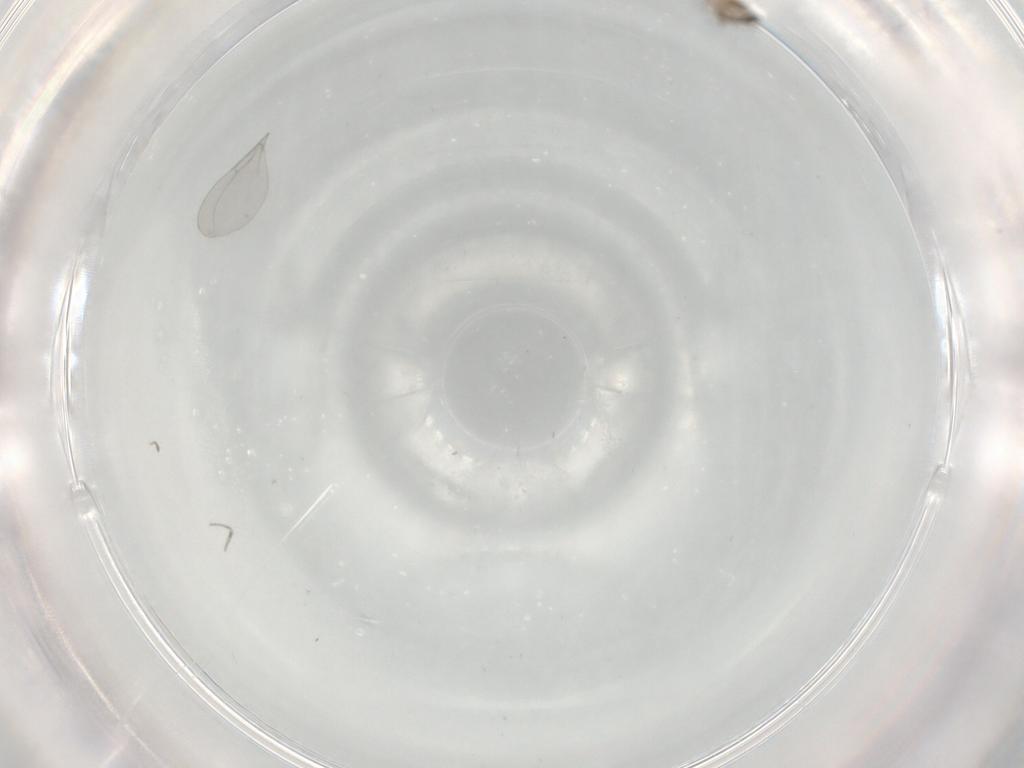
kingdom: Animalia
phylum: Arthropoda
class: Insecta
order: Diptera
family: Cecidomyiidae
